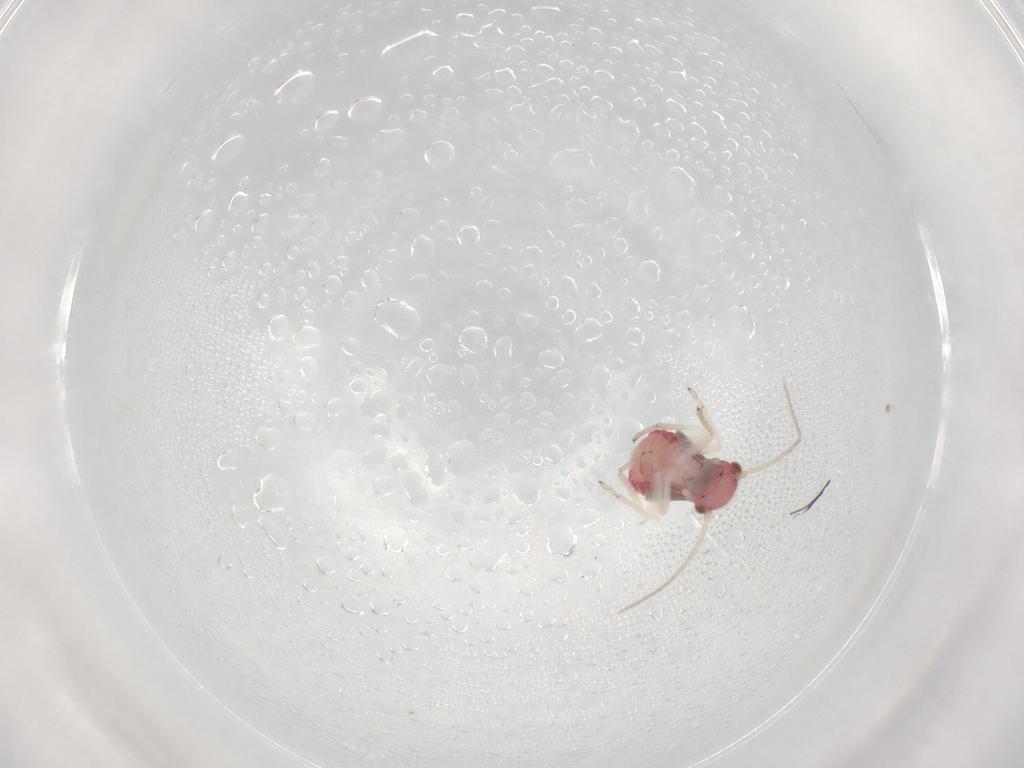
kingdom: Animalia
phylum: Arthropoda
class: Insecta
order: Psocodea
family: Caeciliusidae
